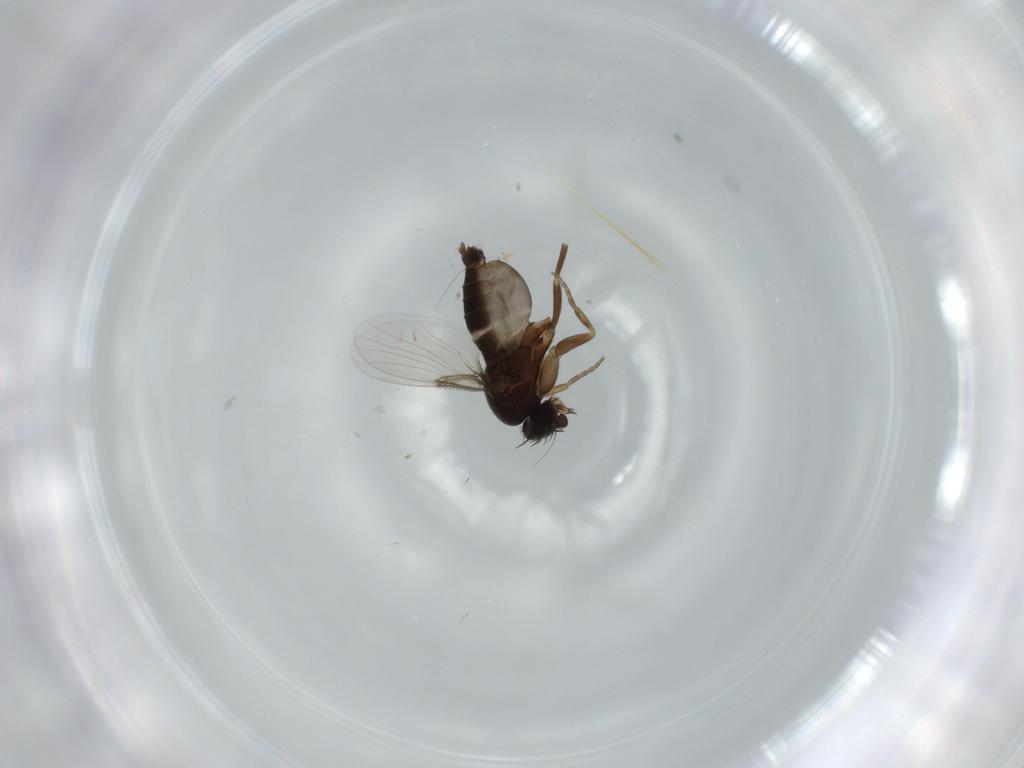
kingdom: Animalia
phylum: Arthropoda
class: Insecta
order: Diptera
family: Phoridae
